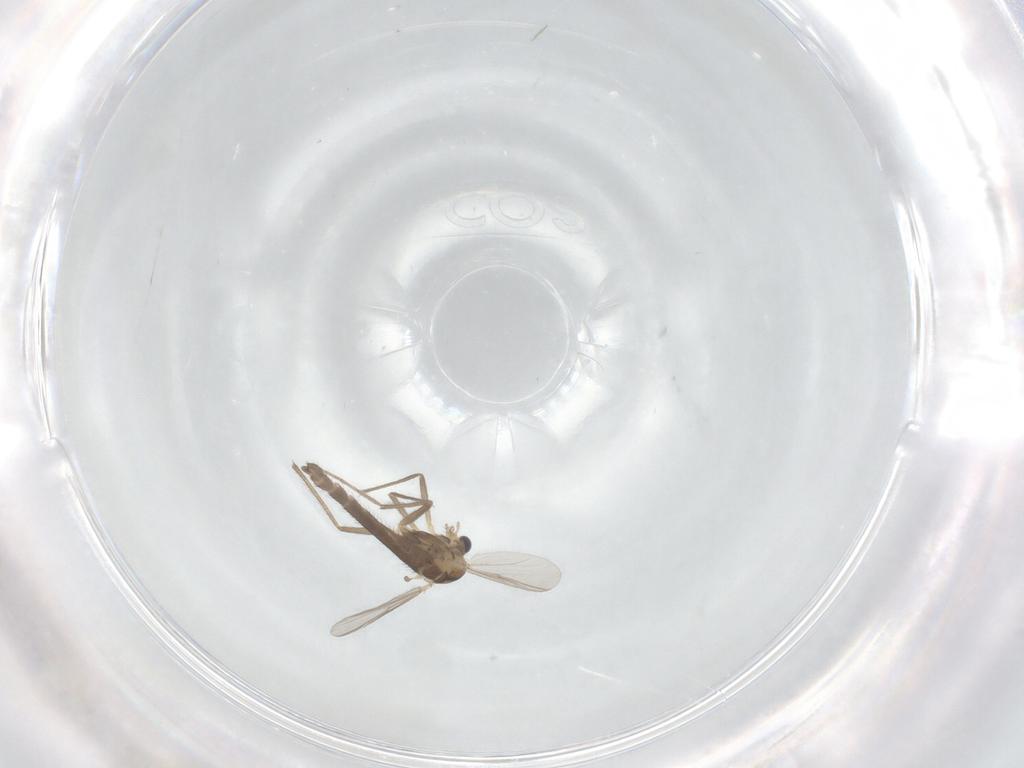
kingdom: Animalia
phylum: Arthropoda
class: Insecta
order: Diptera
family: Chironomidae
